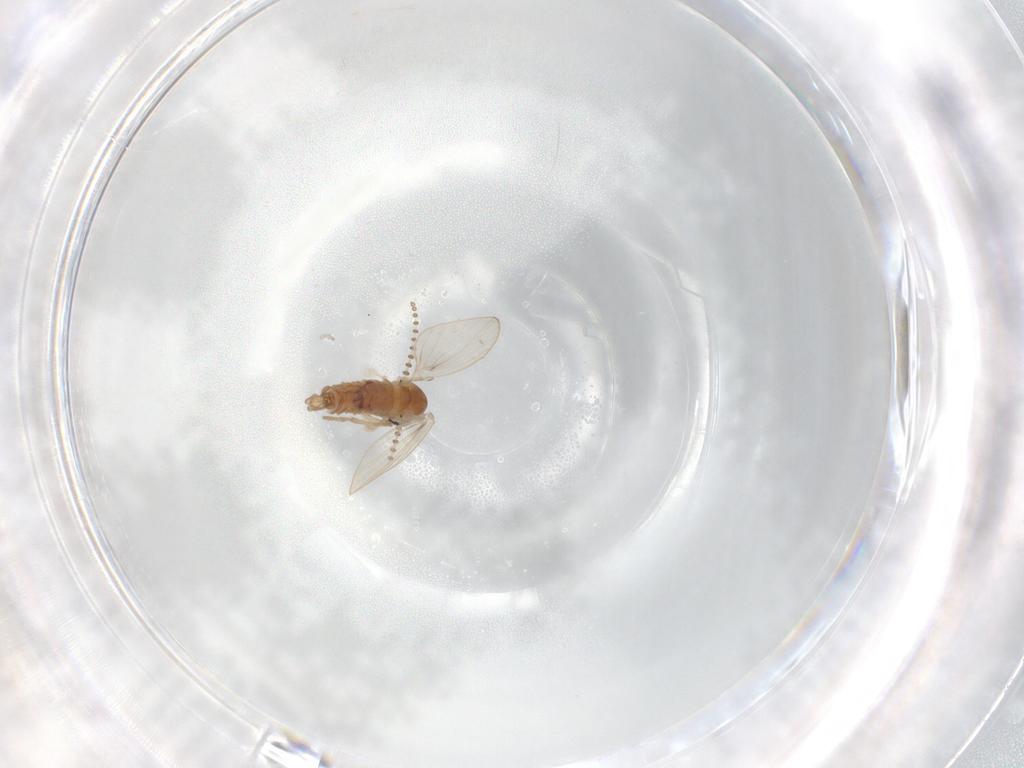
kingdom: Animalia
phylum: Arthropoda
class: Insecta
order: Diptera
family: Psychodidae
